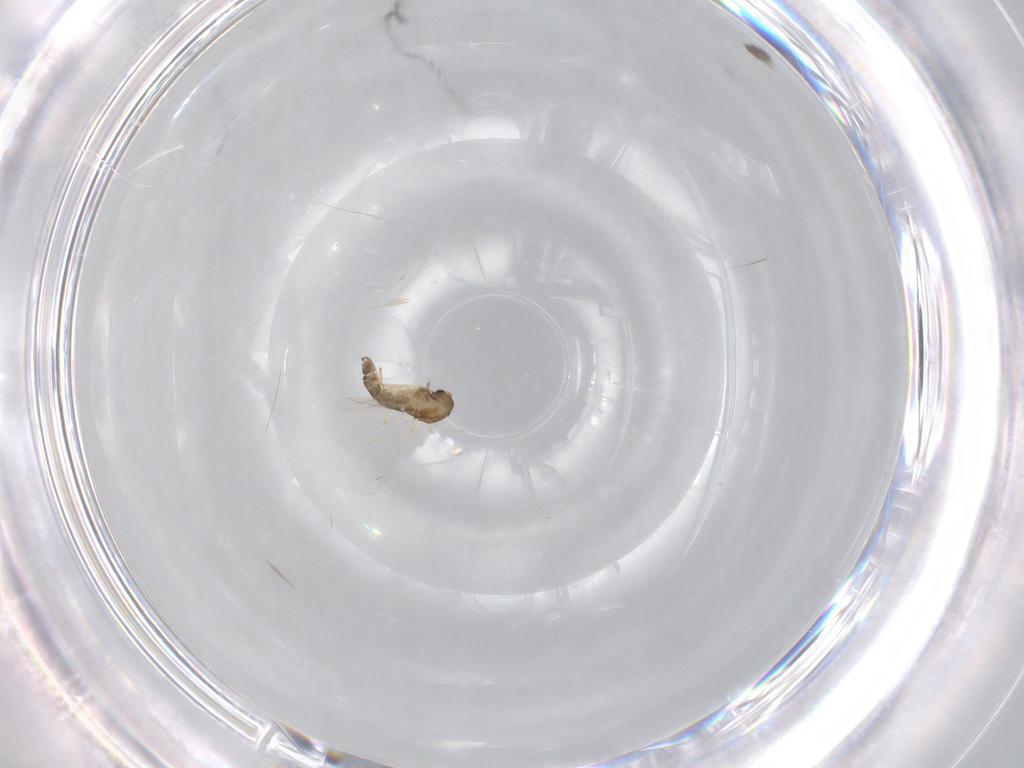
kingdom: Animalia
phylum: Arthropoda
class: Insecta
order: Diptera
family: Chironomidae
